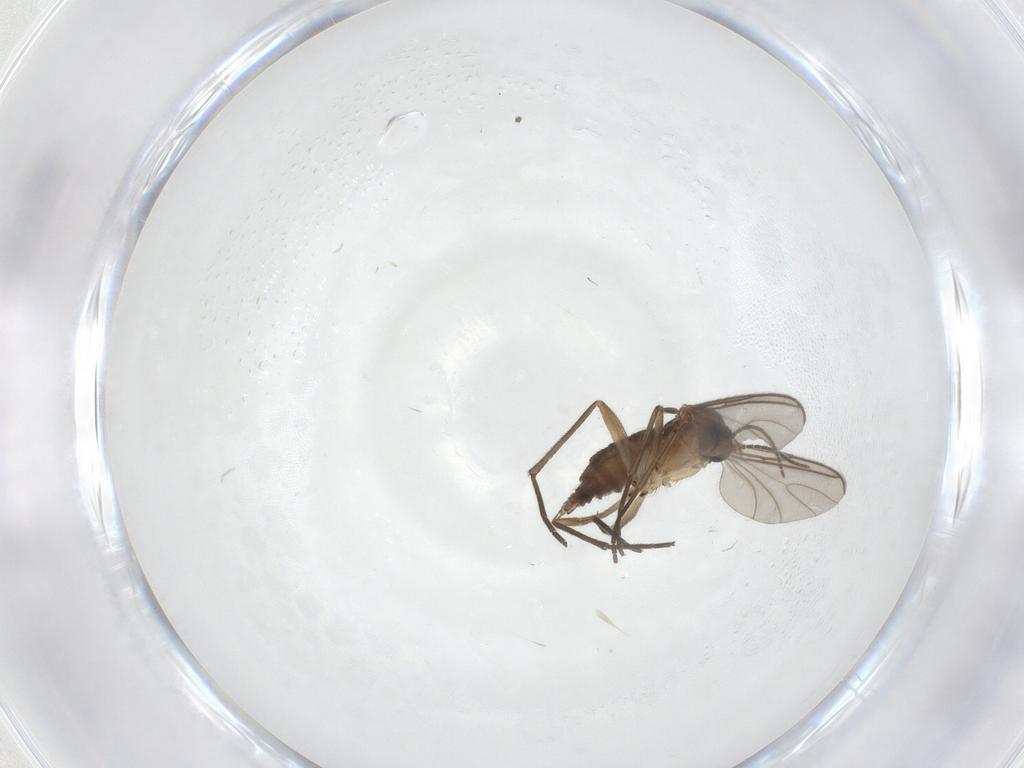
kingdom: Animalia
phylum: Arthropoda
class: Insecta
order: Diptera
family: Sciaridae
